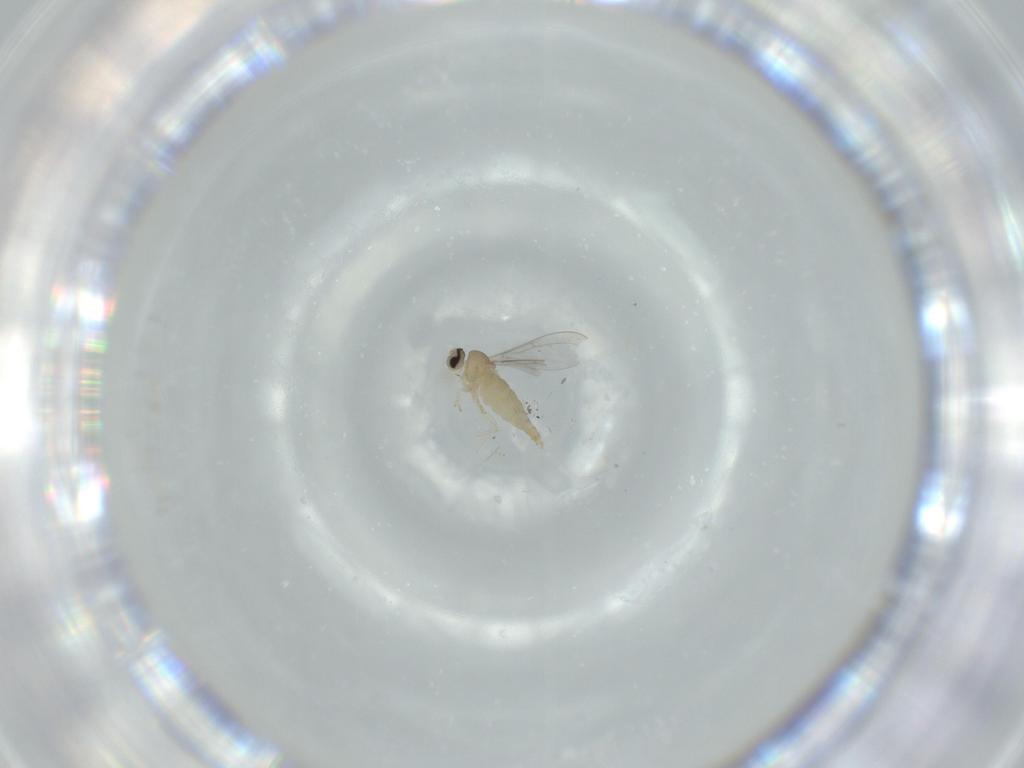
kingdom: Animalia
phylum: Arthropoda
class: Insecta
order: Diptera
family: Cecidomyiidae
